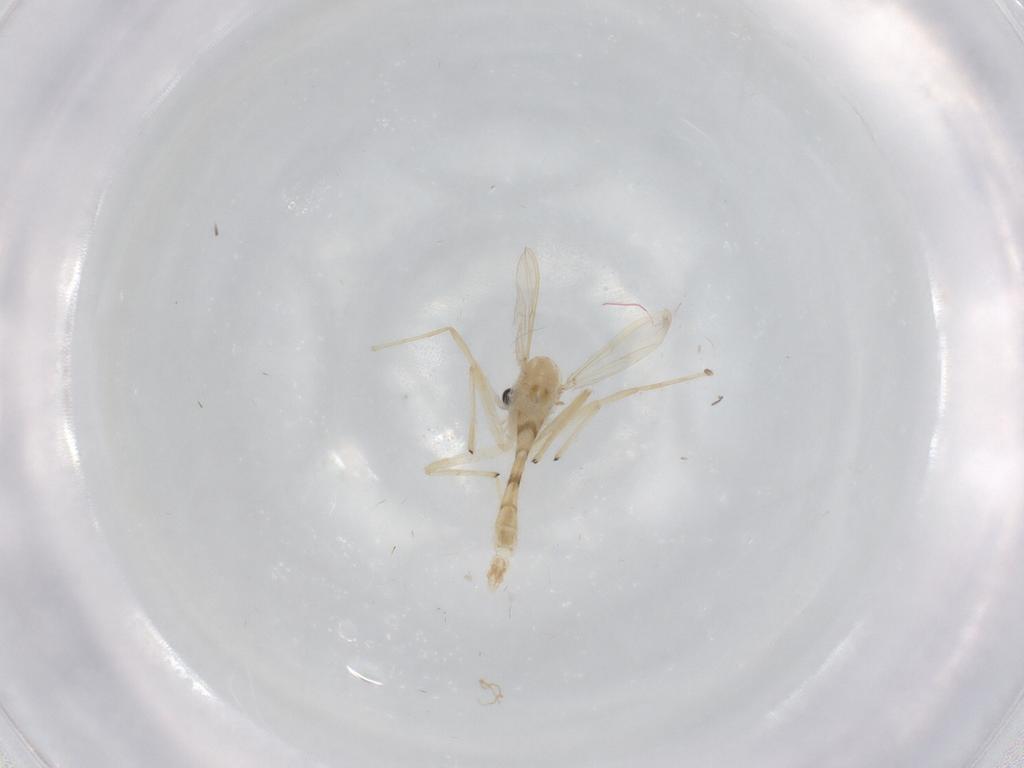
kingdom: Animalia
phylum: Arthropoda
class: Insecta
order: Diptera
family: Chironomidae
